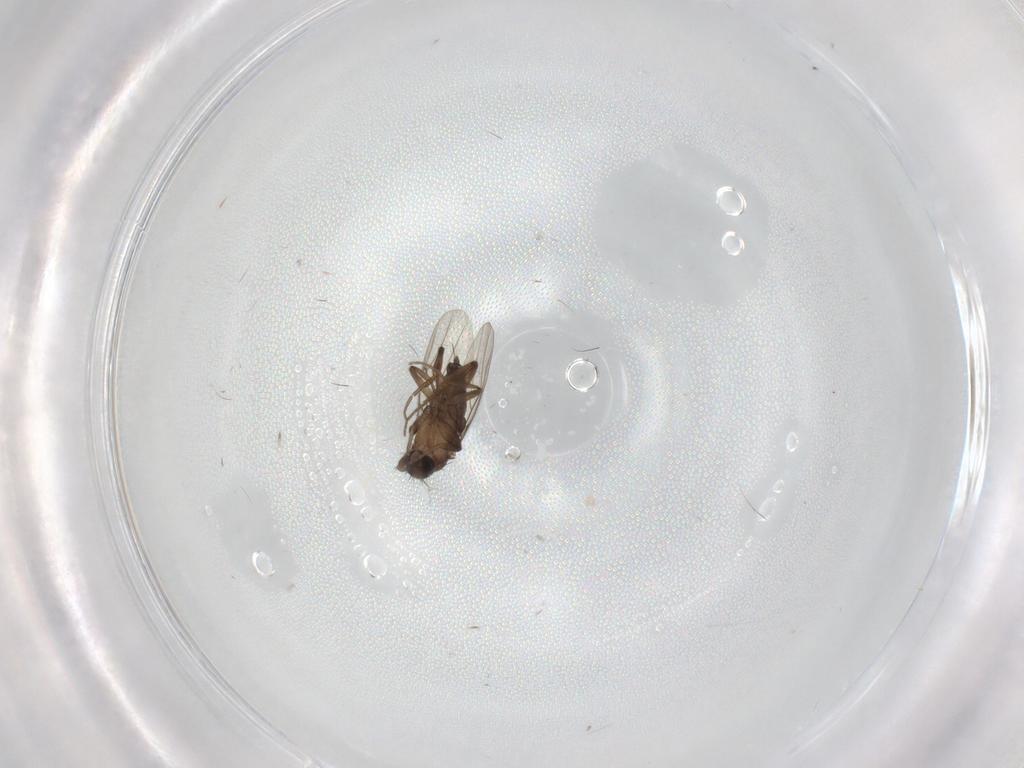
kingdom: Animalia
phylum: Arthropoda
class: Insecta
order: Diptera
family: Phoridae
